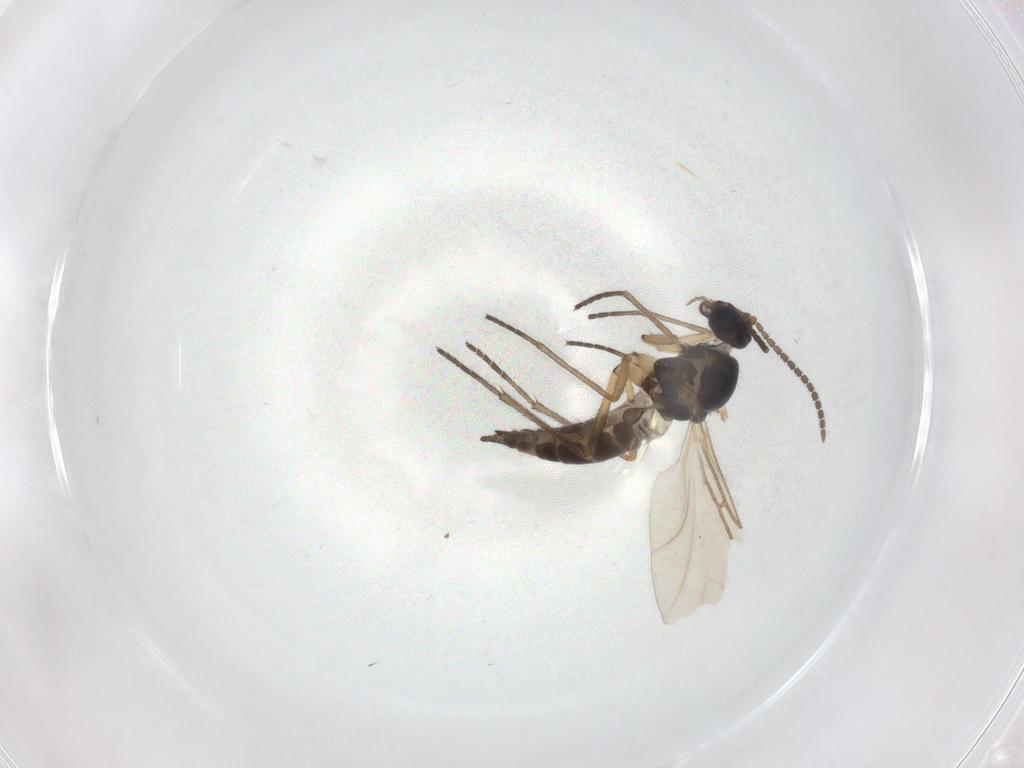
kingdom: Animalia
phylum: Arthropoda
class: Insecta
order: Diptera
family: Sciaridae
